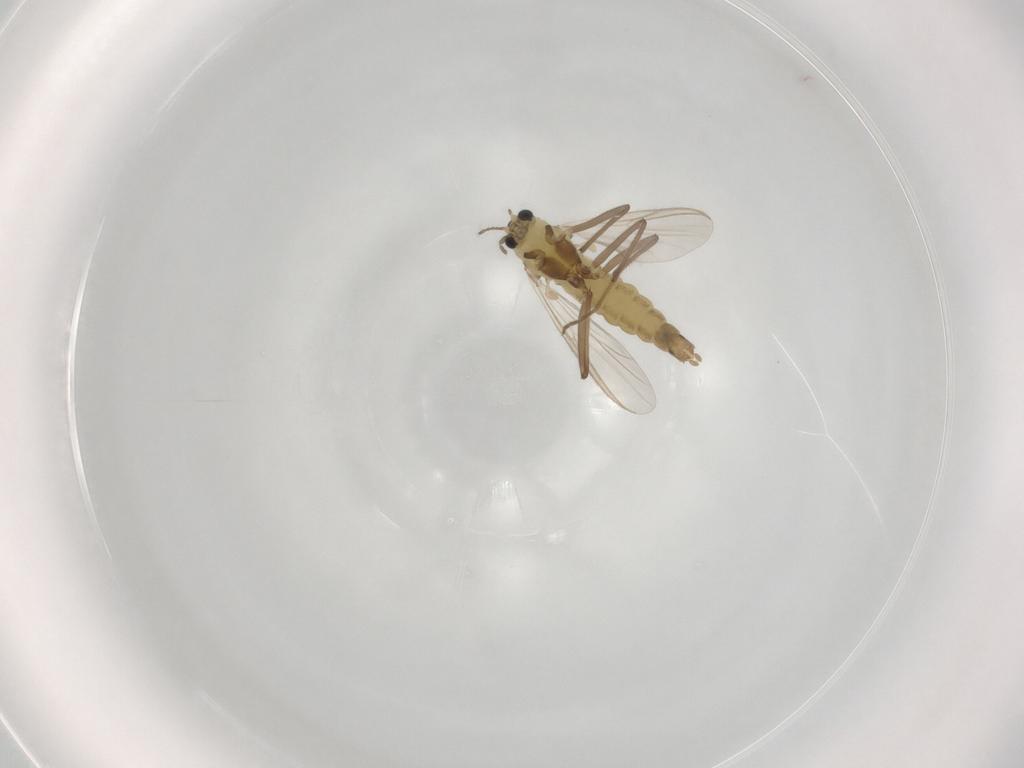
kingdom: Animalia
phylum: Arthropoda
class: Insecta
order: Diptera
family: Chironomidae
